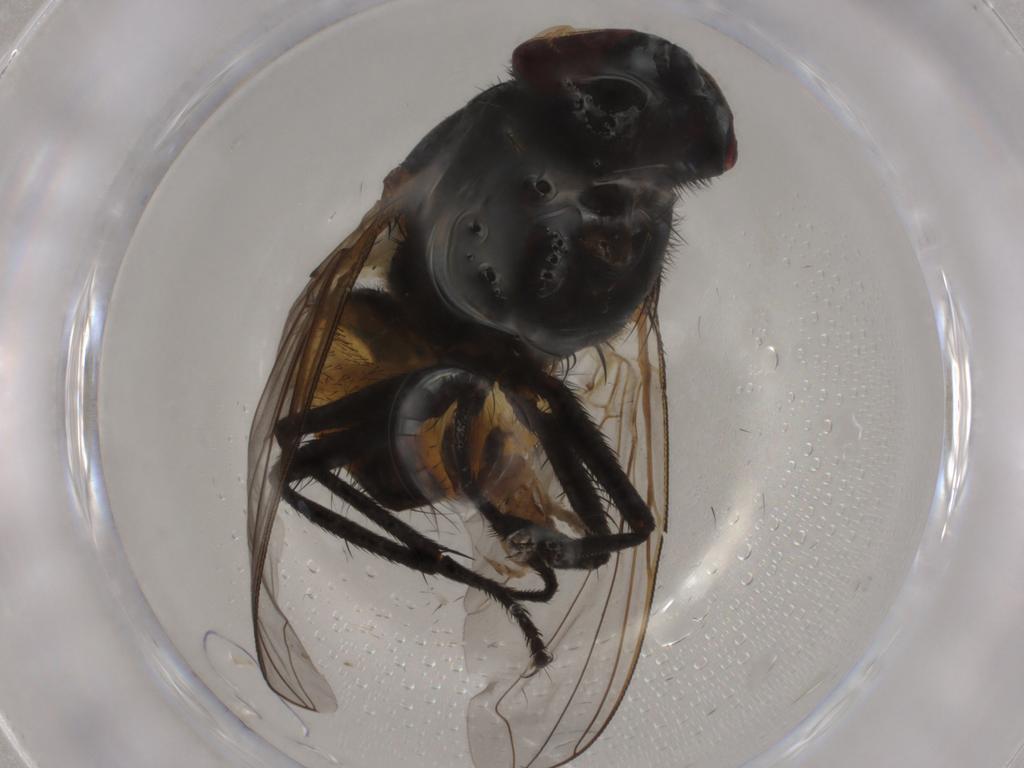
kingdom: Animalia
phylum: Arthropoda
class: Insecta
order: Diptera
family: Muscidae
